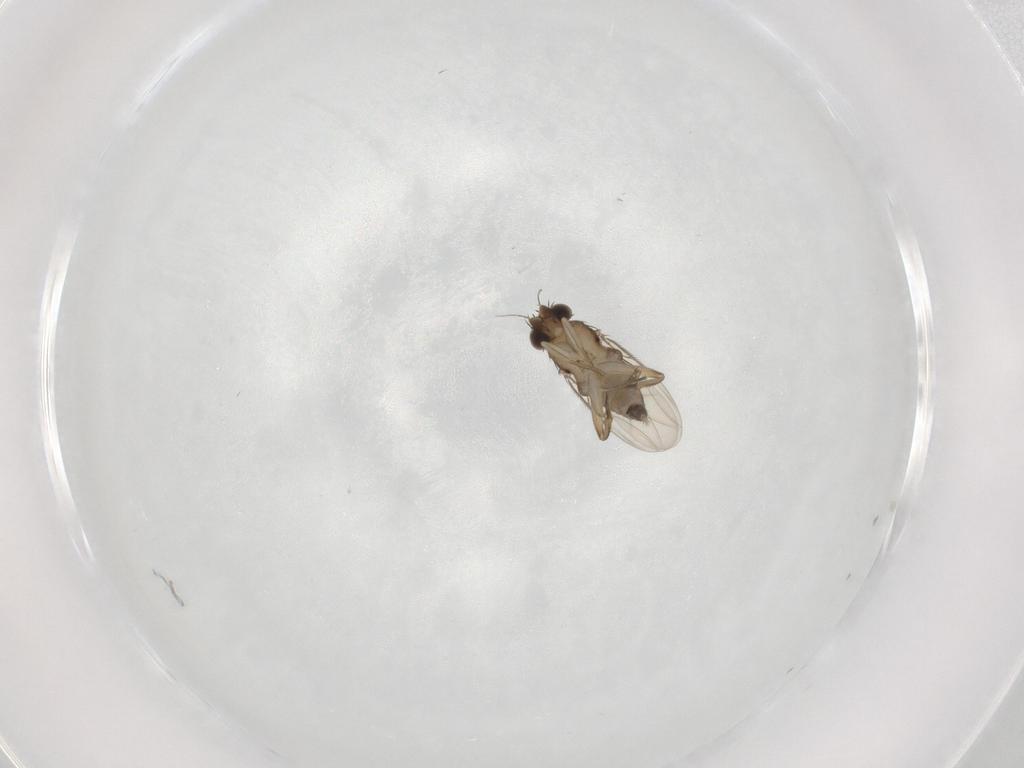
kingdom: Animalia
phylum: Arthropoda
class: Insecta
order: Diptera
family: Phoridae
